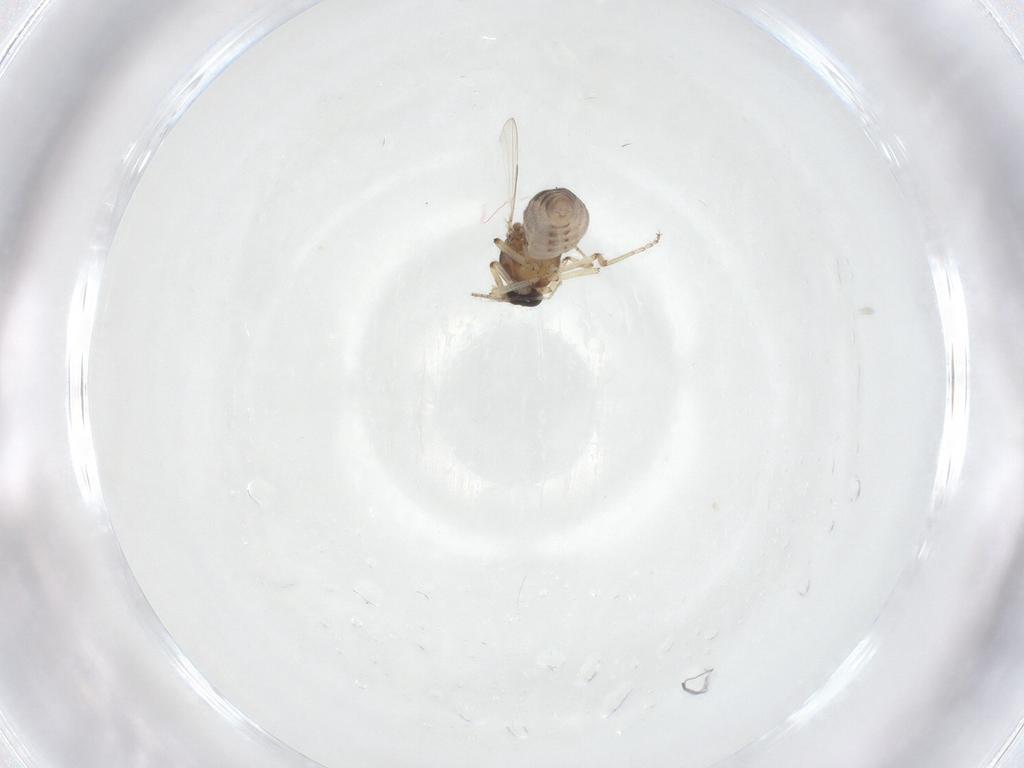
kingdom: Animalia
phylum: Arthropoda
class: Insecta
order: Diptera
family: Ceratopogonidae
